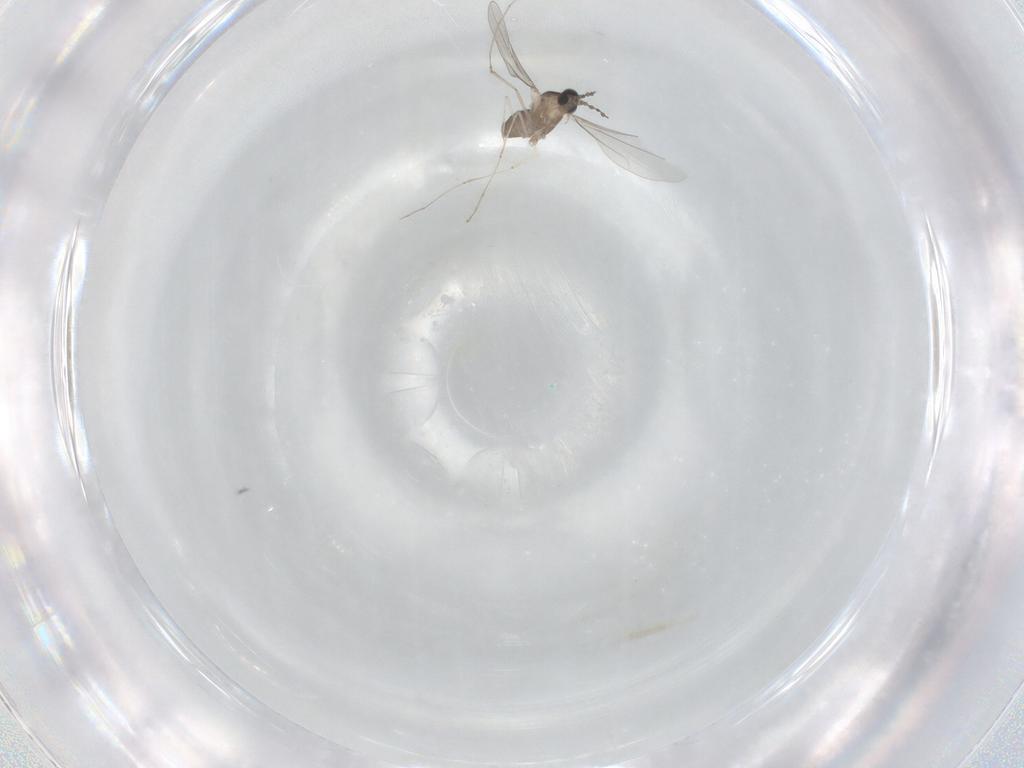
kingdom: Animalia
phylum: Arthropoda
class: Insecta
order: Diptera
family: Cecidomyiidae
